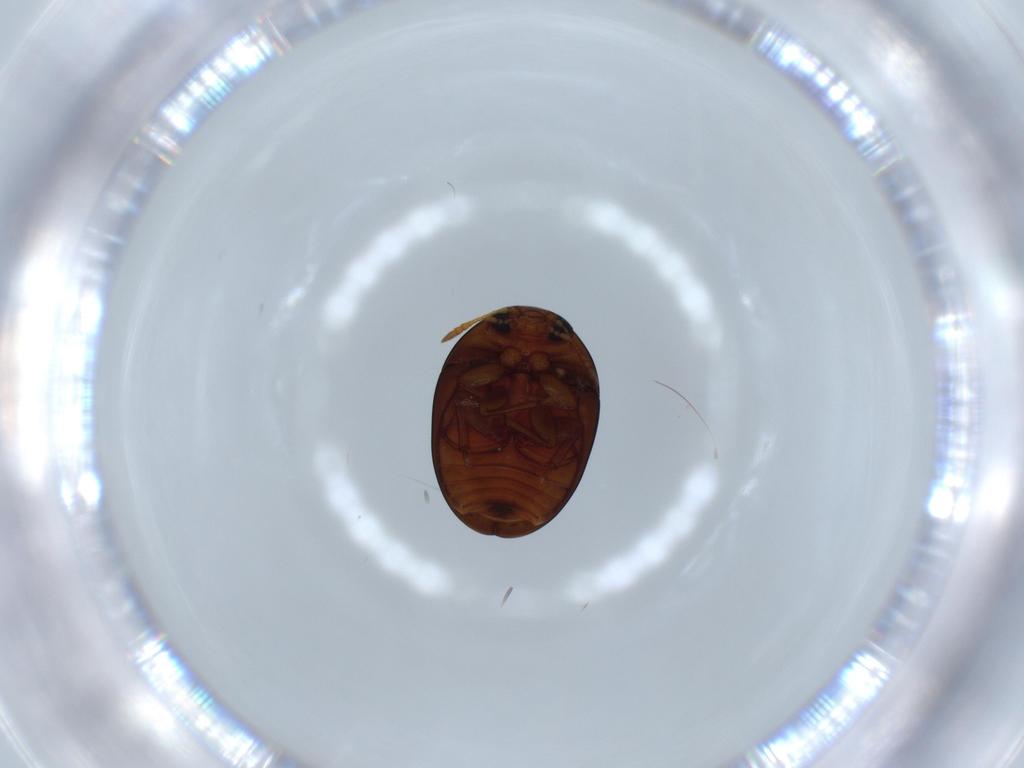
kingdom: Animalia
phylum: Arthropoda
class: Insecta
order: Coleoptera
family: Phalacridae
